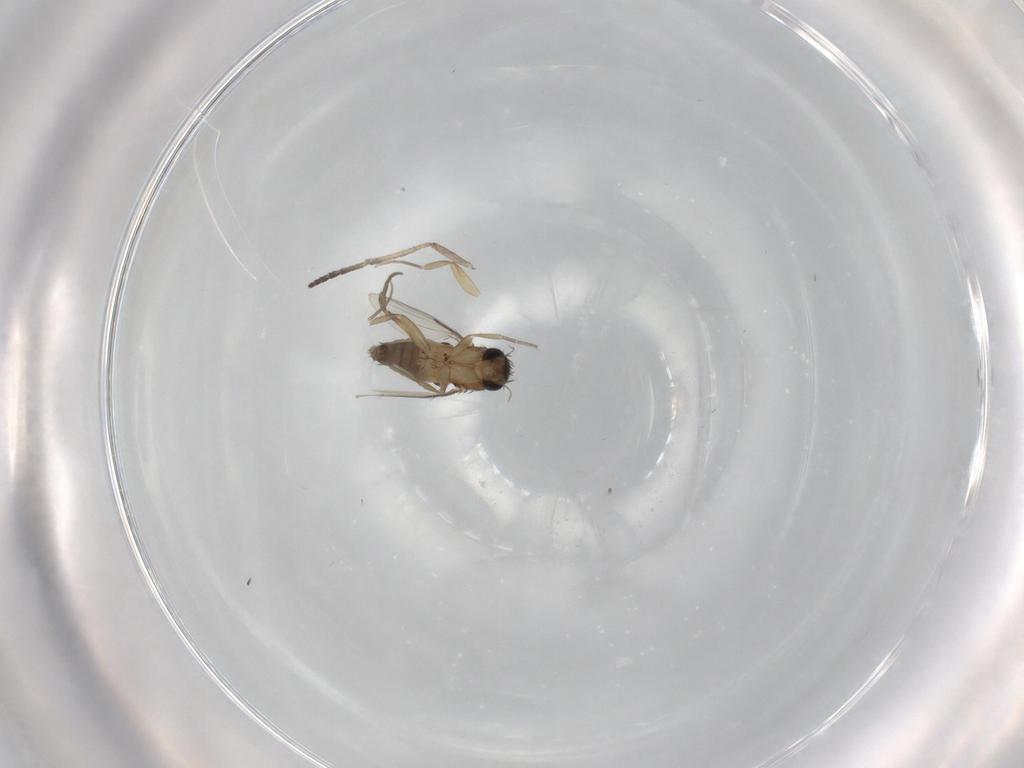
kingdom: Animalia
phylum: Arthropoda
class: Insecta
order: Diptera
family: Phoridae
